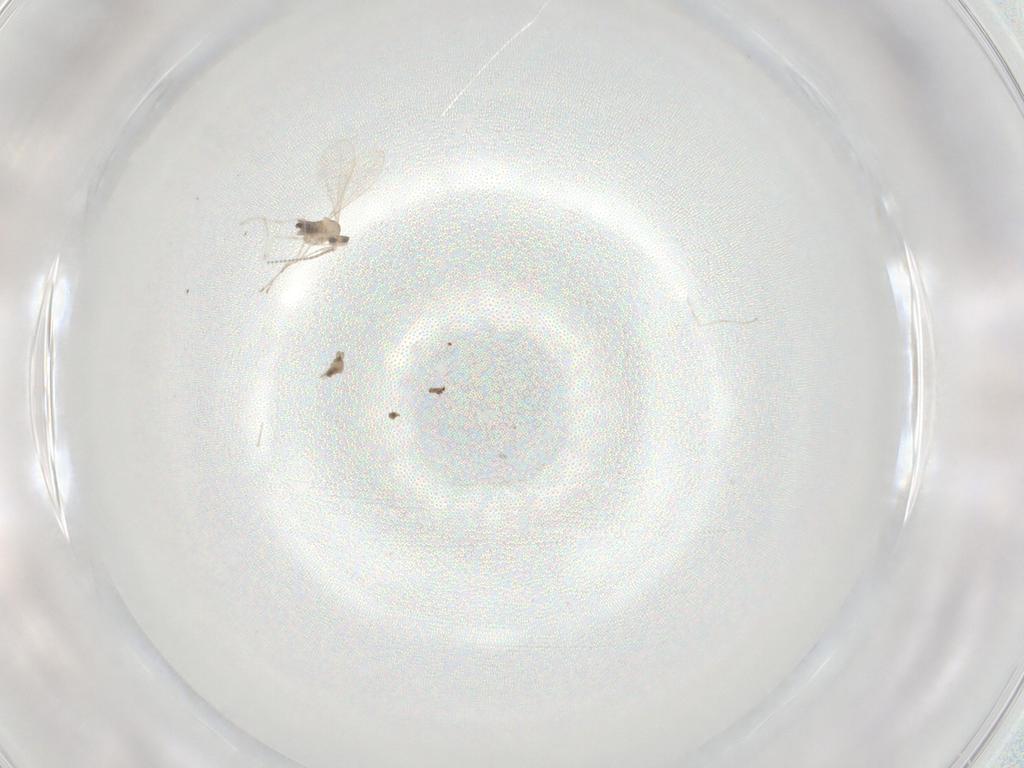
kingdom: Animalia
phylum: Arthropoda
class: Insecta
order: Diptera
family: Cecidomyiidae
